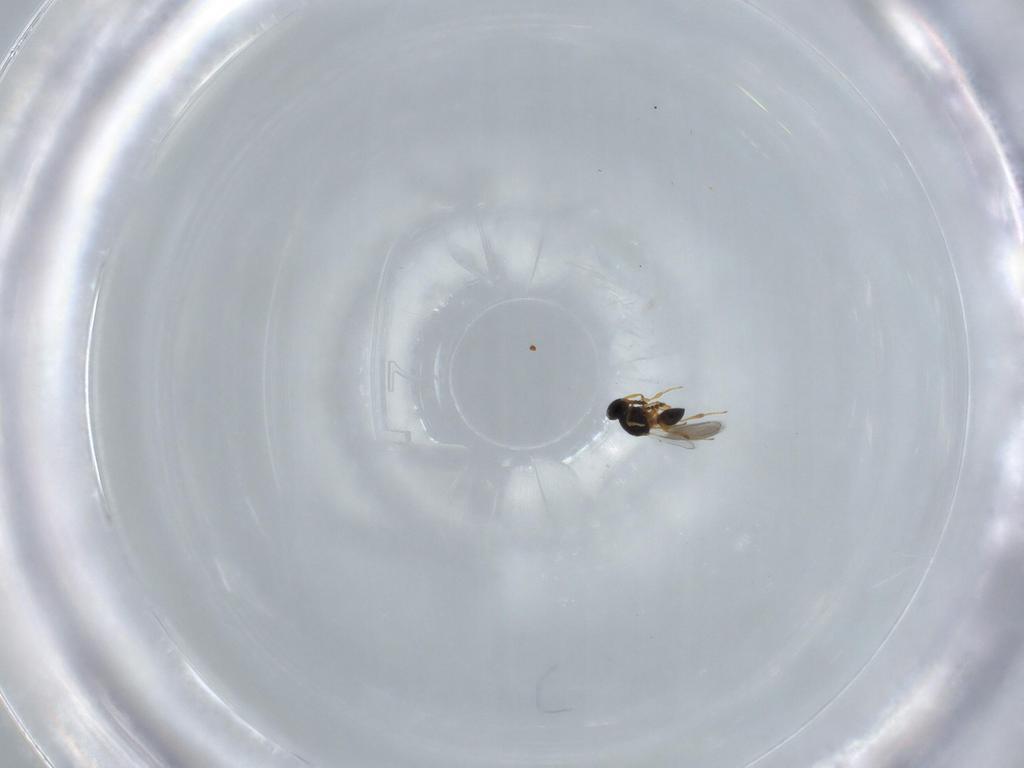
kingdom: Animalia
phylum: Arthropoda
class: Insecta
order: Hymenoptera
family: Platygastridae
